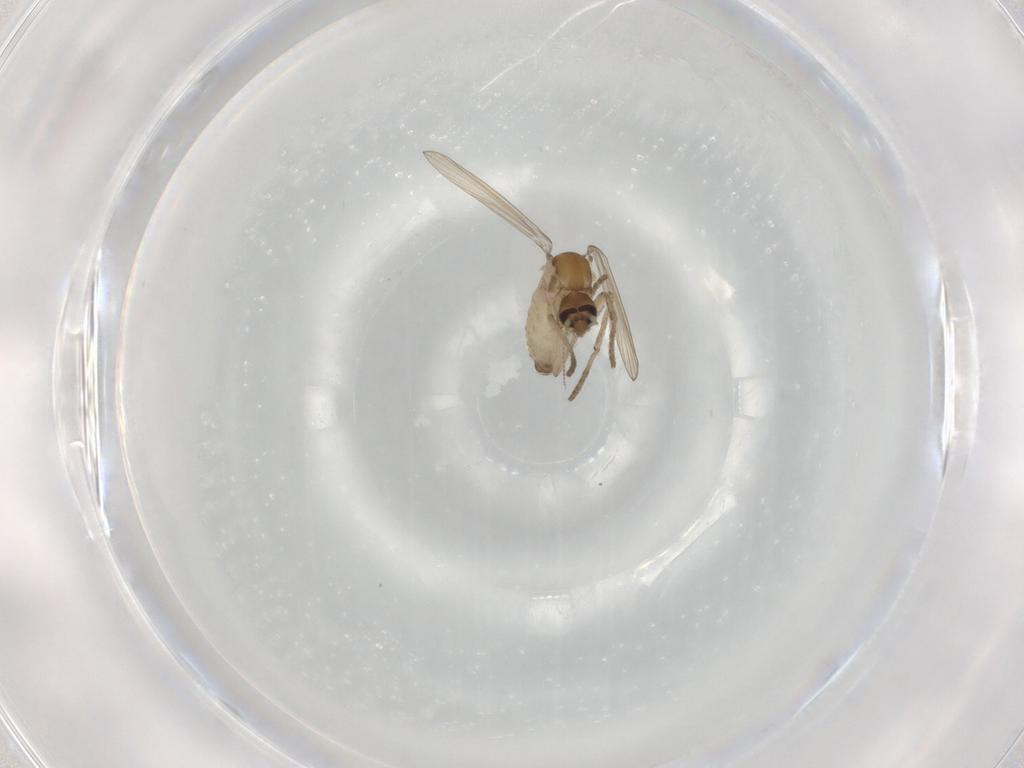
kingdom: Animalia
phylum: Arthropoda
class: Insecta
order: Diptera
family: Psychodidae
